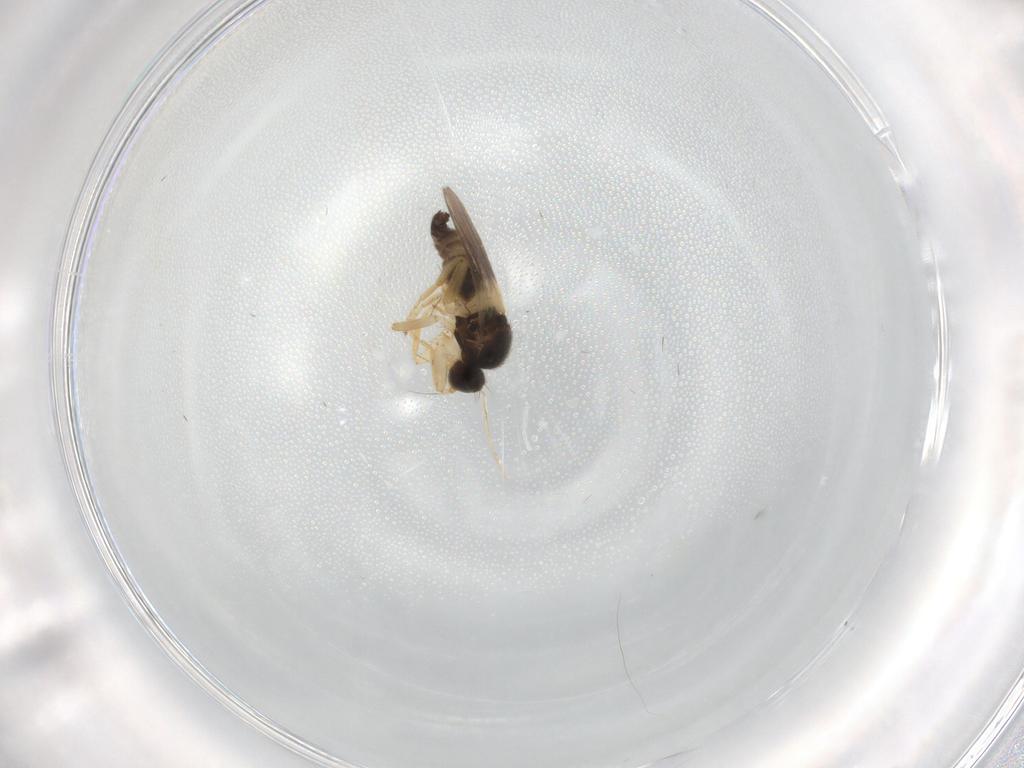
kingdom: Animalia
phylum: Arthropoda
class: Insecta
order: Diptera
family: Hybotidae
